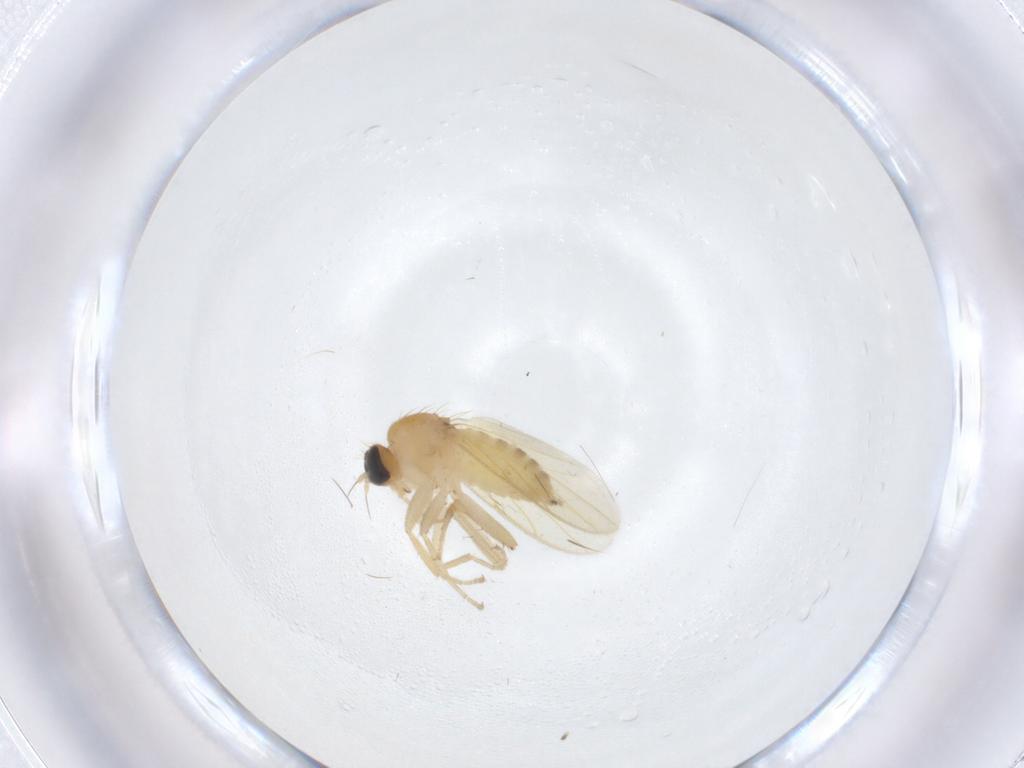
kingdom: Animalia
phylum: Arthropoda
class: Insecta
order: Diptera
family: Hybotidae
